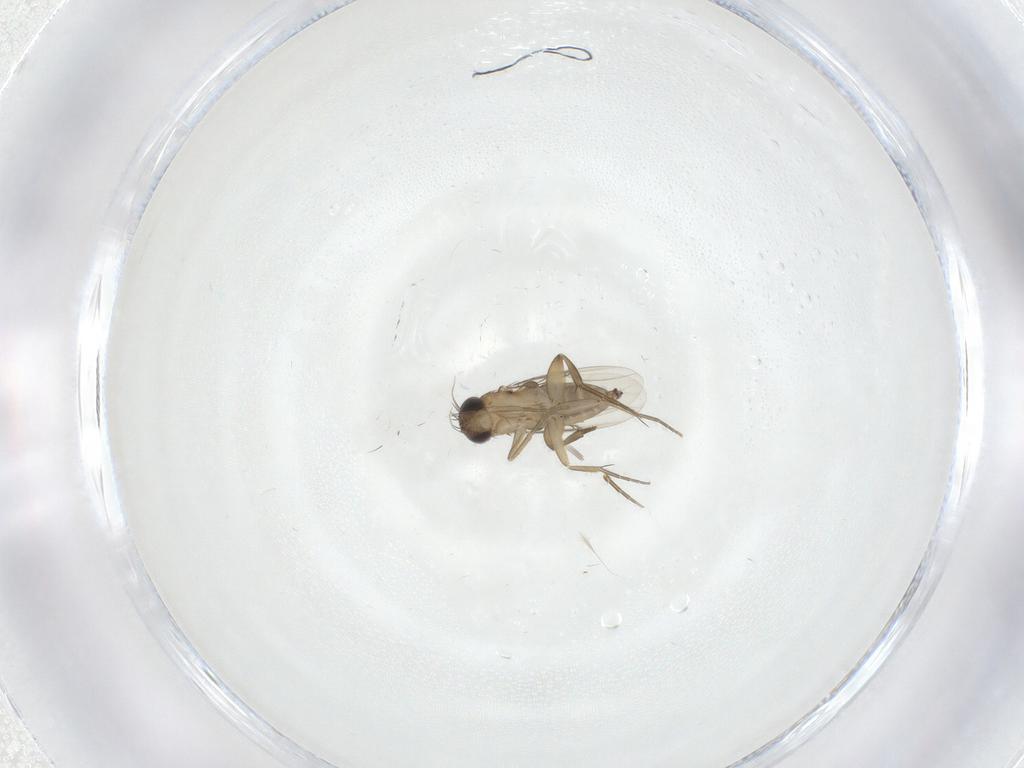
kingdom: Animalia
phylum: Arthropoda
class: Insecta
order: Diptera
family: Phoridae
